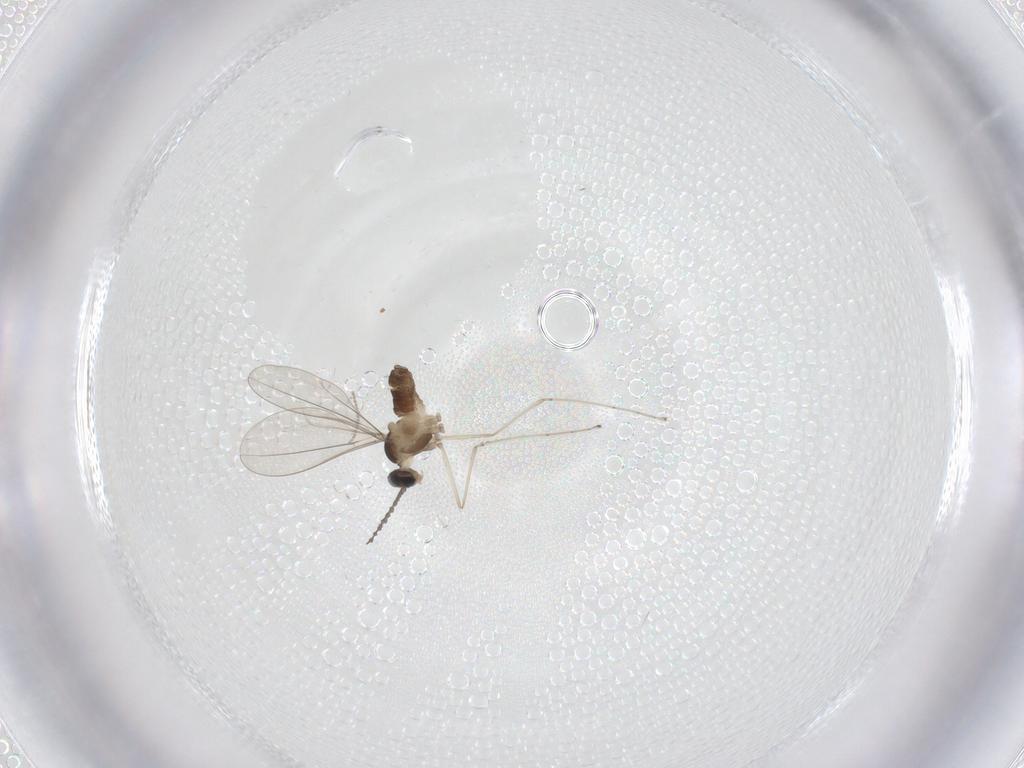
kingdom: Animalia
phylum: Arthropoda
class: Insecta
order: Diptera
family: Cecidomyiidae
